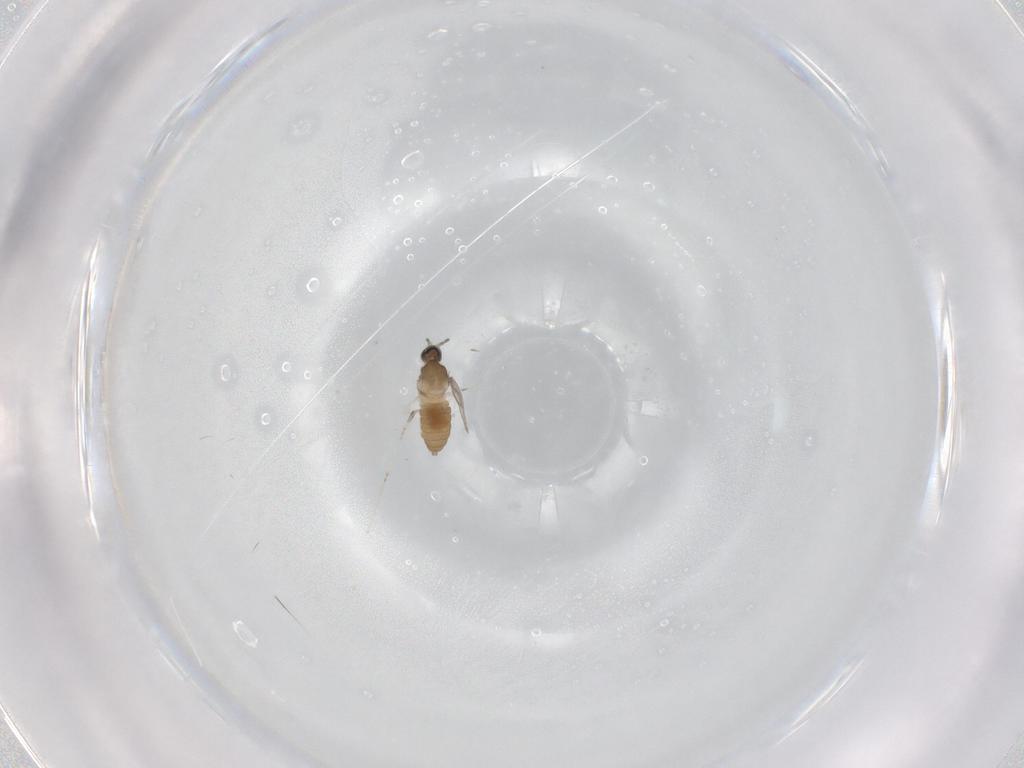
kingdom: Animalia
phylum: Arthropoda
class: Insecta
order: Diptera
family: Cecidomyiidae
